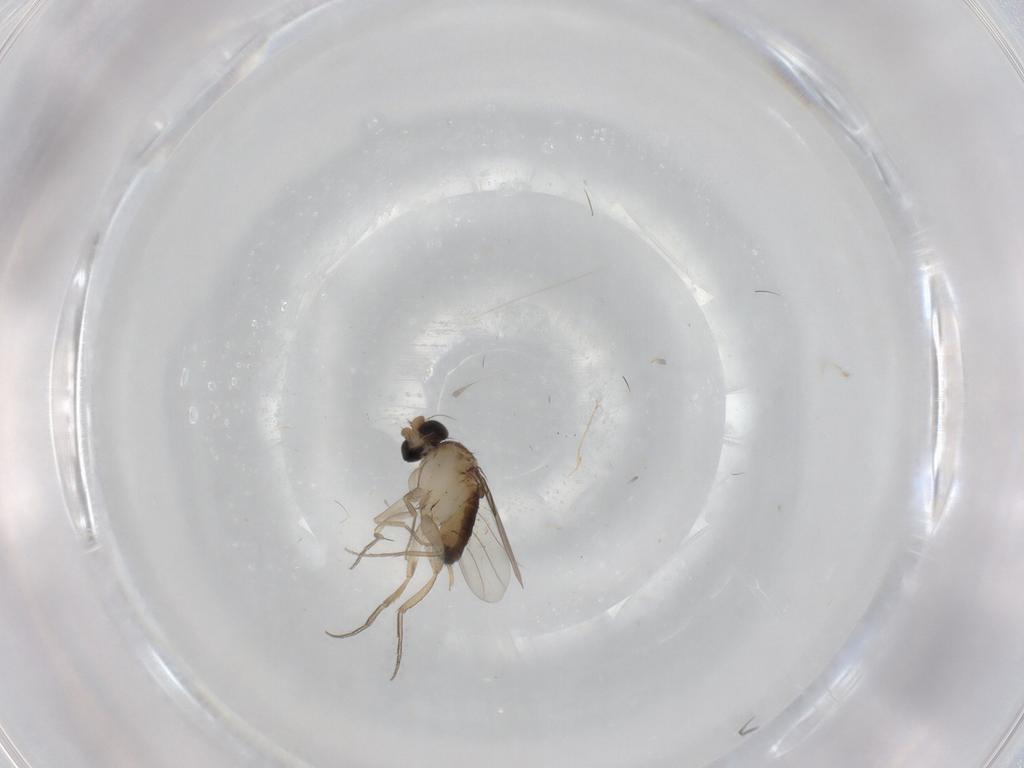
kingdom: Animalia
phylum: Arthropoda
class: Insecta
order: Diptera
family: Phoridae
